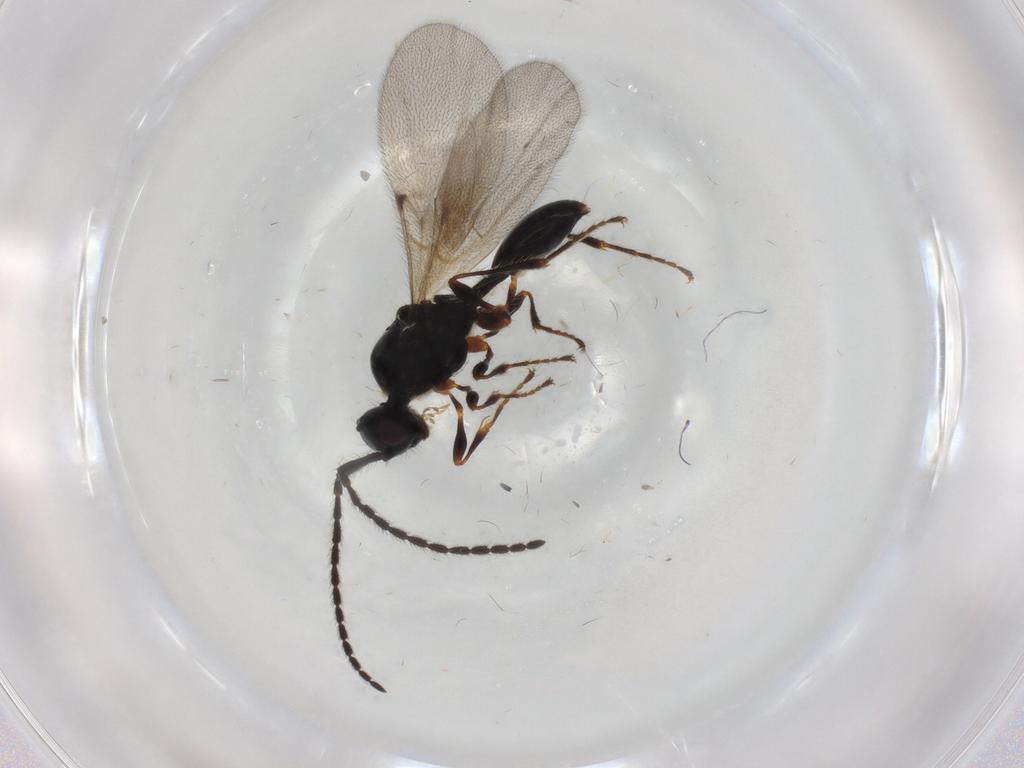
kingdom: Animalia
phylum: Arthropoda
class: Insecta
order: Hymenoptera
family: Diapriidae
